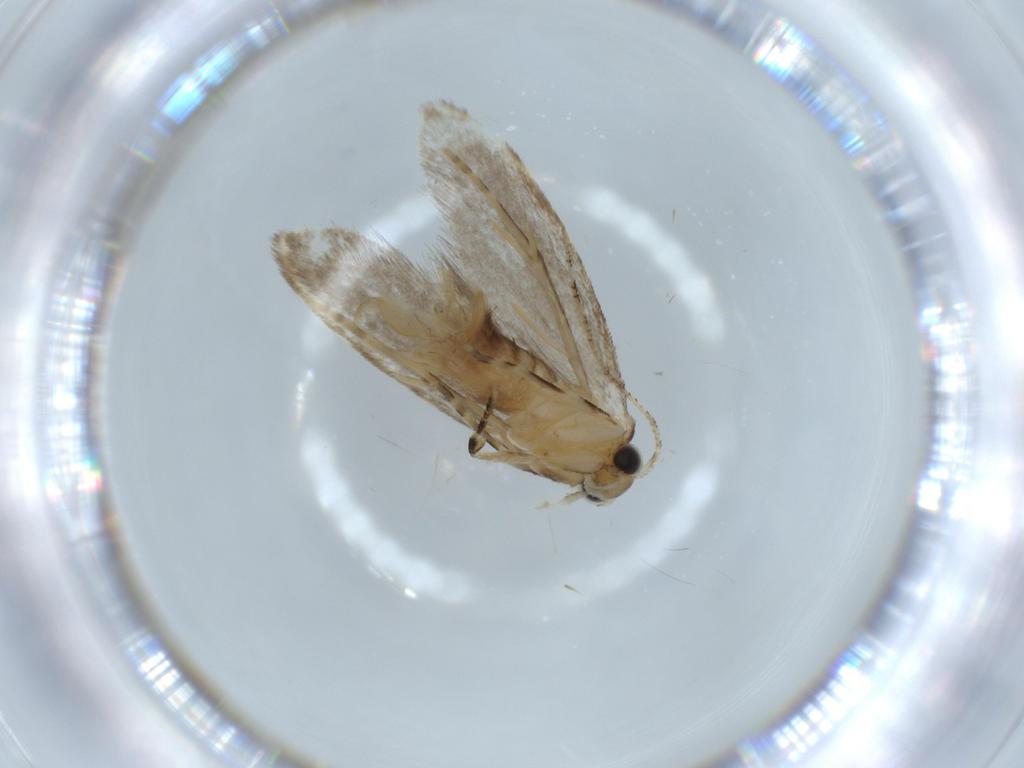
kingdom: Animalia
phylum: Arthropoda
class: Insecta
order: Lepidoptera
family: Tineidae
